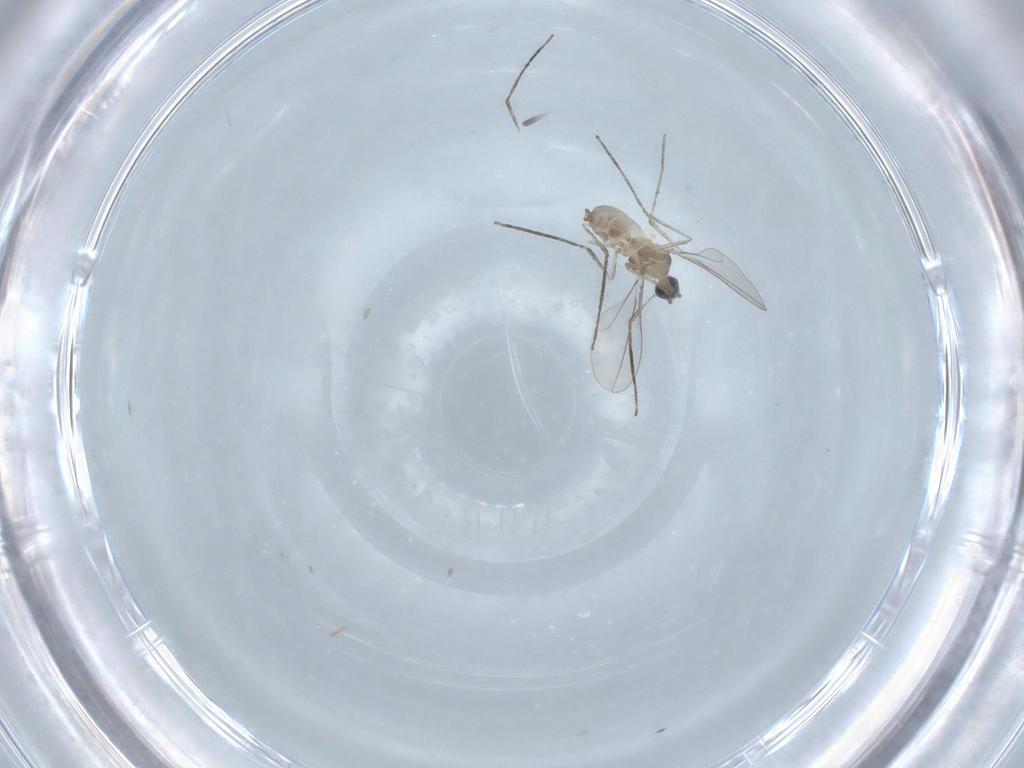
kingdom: Animalia
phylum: Arthropoda
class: Insecta
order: Diptera
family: Cecidomyiidae
